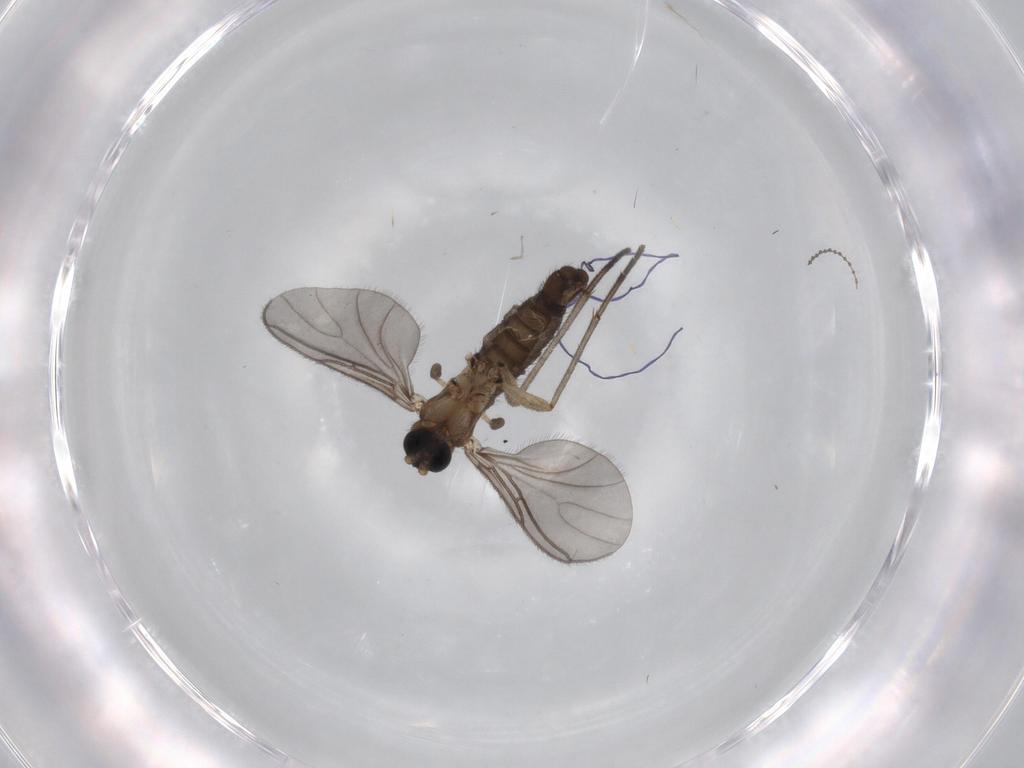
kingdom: Animalia
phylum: Arthropoda
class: Insecta
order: Diptera
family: Sciaridae
